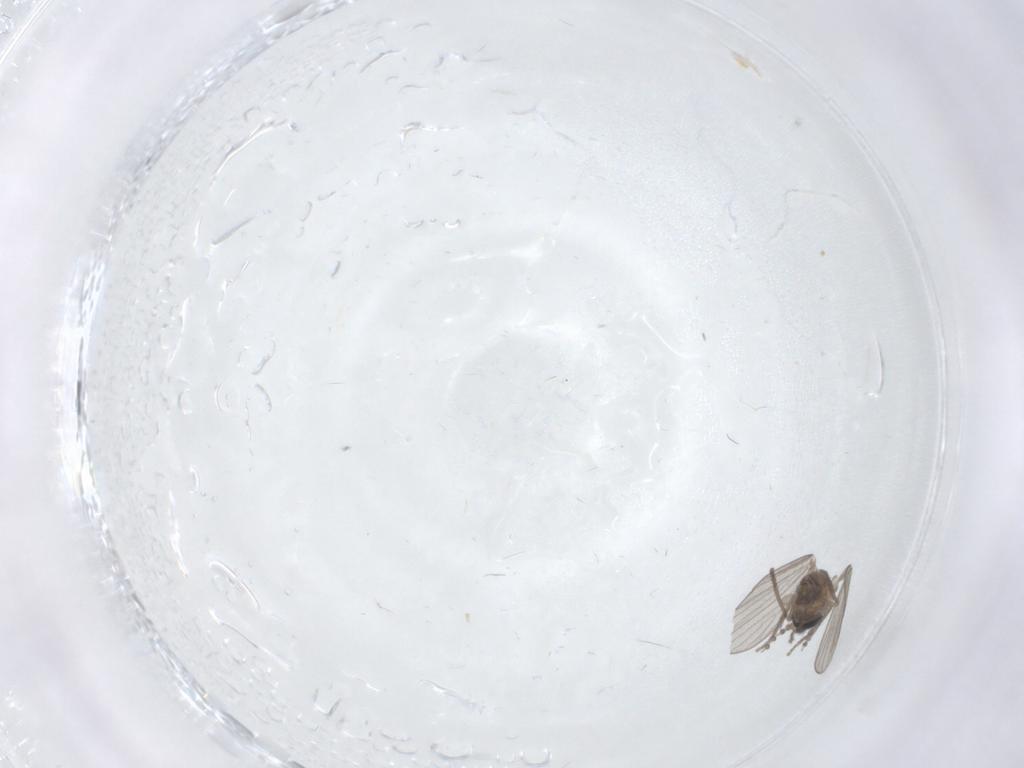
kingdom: Animalia
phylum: Arthropoda
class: Insecta
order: Diptera
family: Psychodidae
